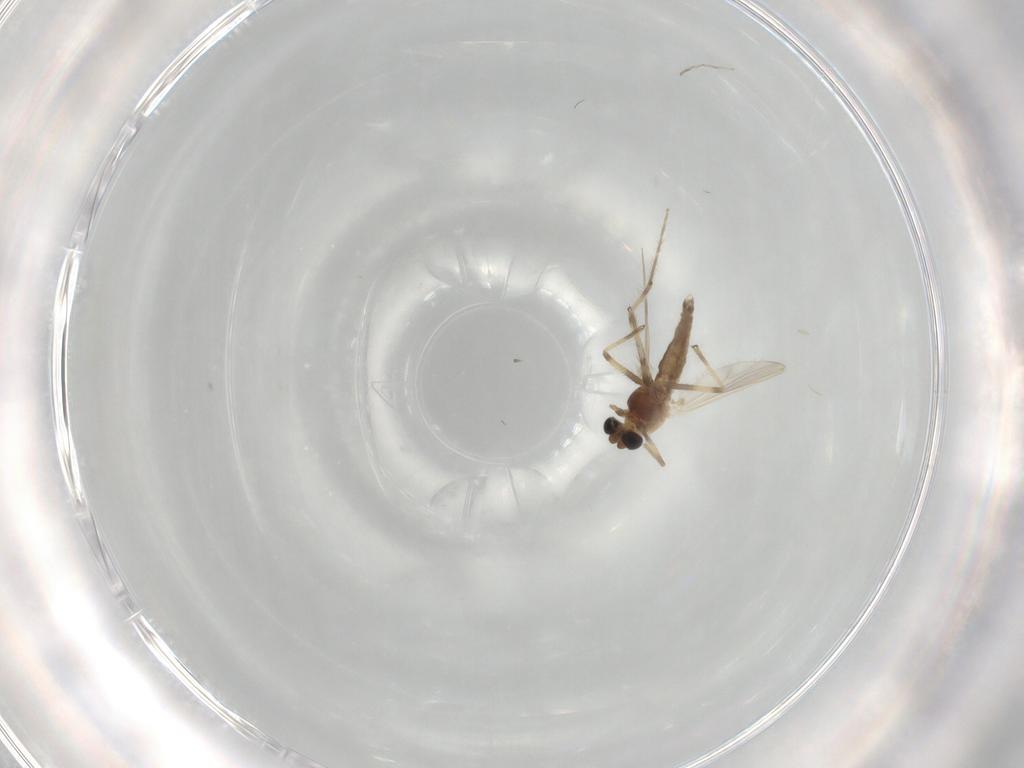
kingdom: Animalia
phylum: Arthropoda
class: Insecta
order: Diptera
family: Chironomidae
